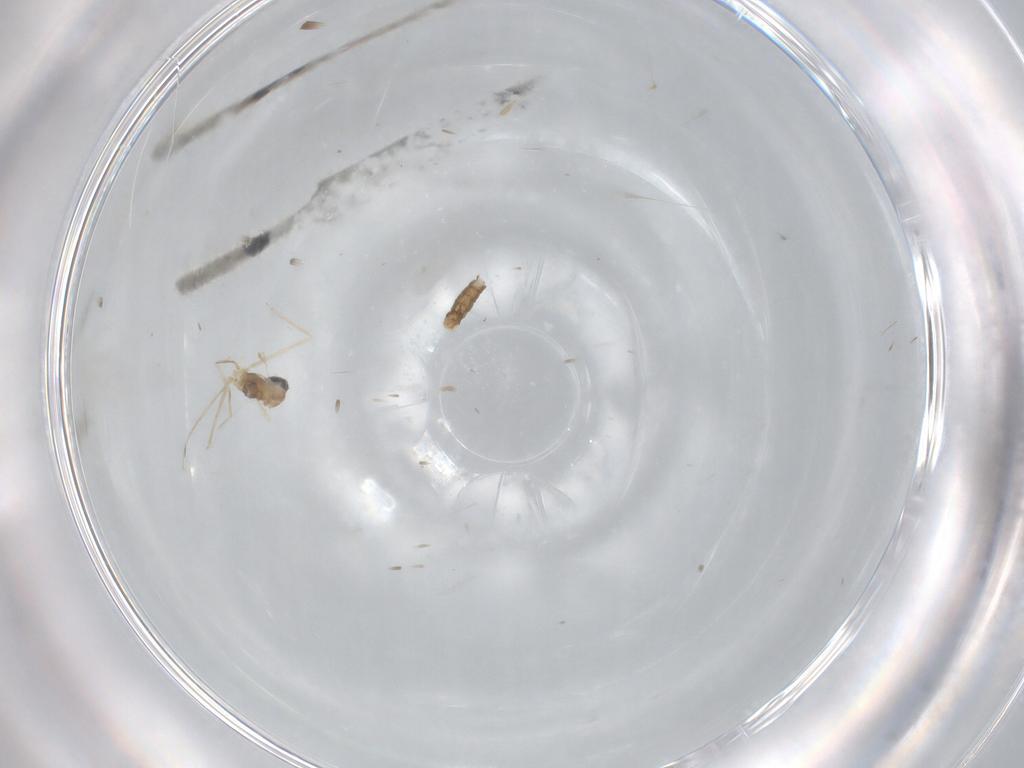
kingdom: Animalia
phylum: Arthropoda
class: Insecta
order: Diptera
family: Cecidomyiidae
